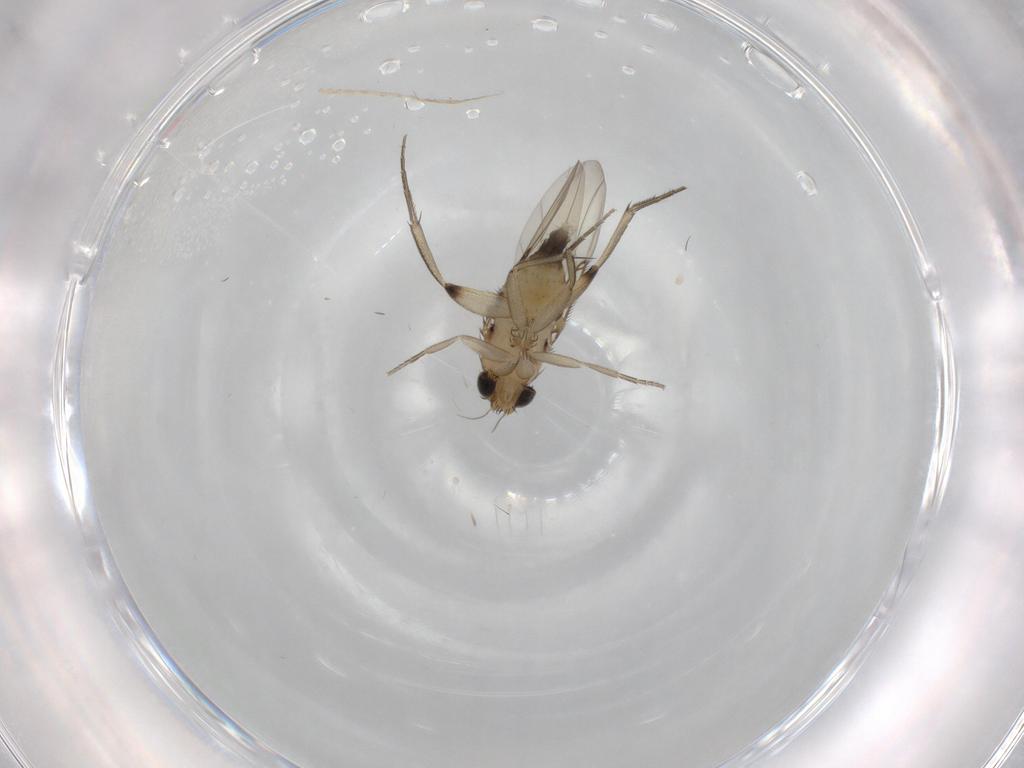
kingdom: Animalia
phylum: Arthropoda
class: Insecta
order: Diptera
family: Phoridae
